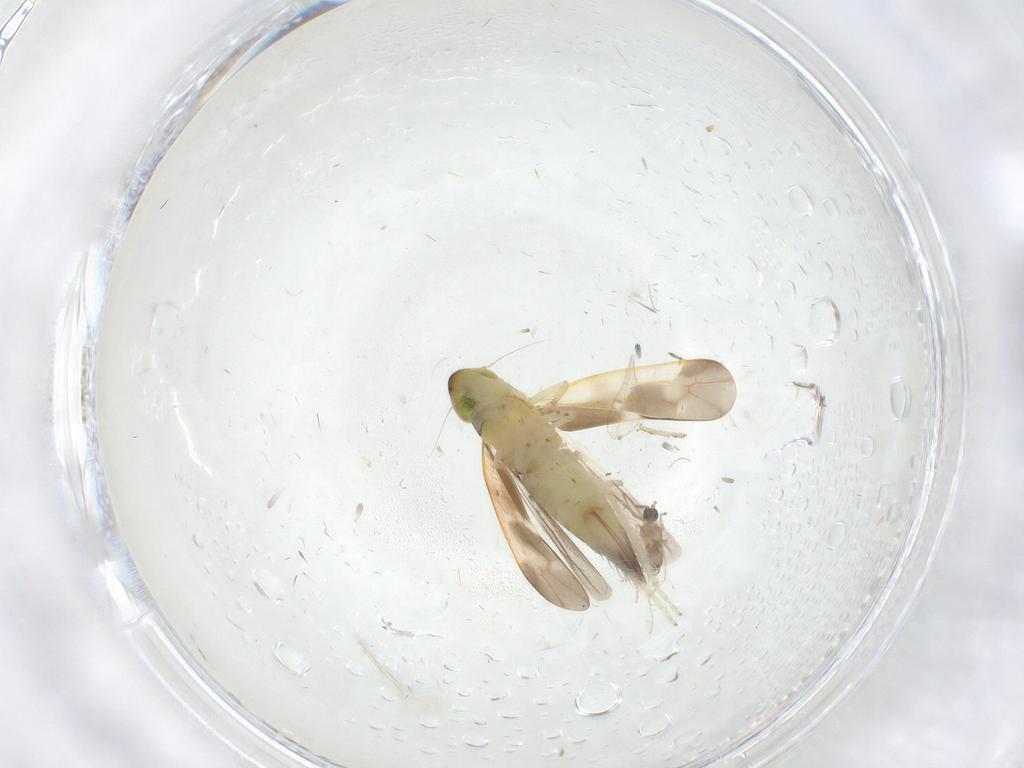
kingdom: Animalia
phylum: Arthropoda
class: Insecta
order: Diptera
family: Cecidomyiidae
